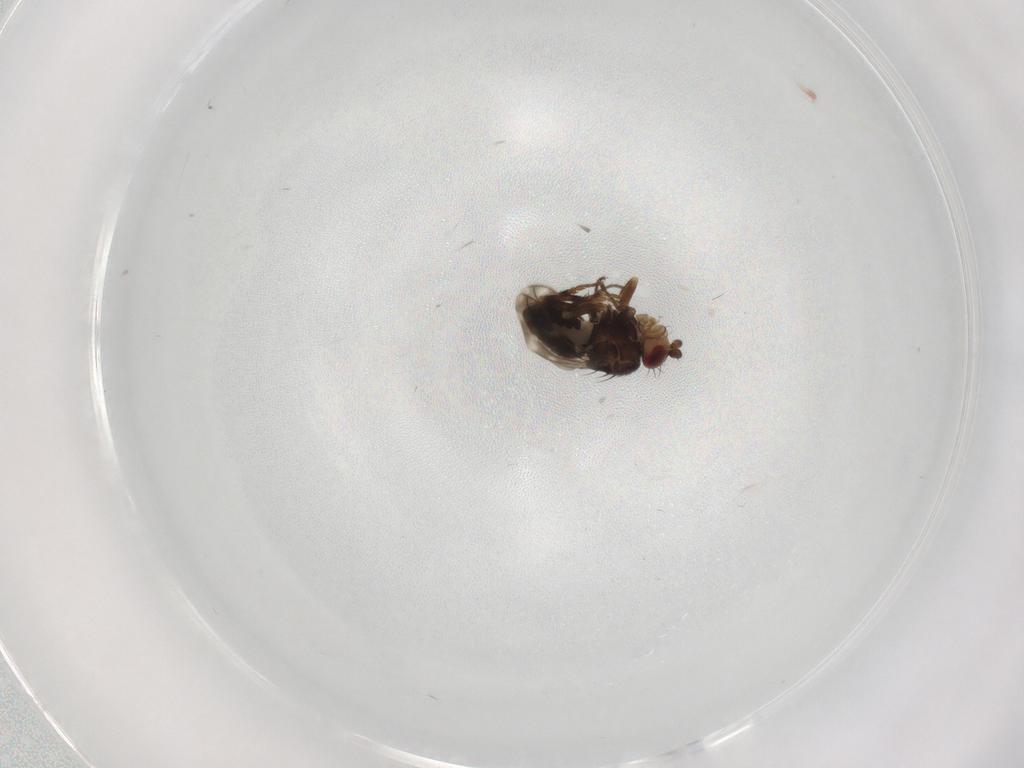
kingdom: Animalia
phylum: Arthropoda
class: Insecta
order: Diptera
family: Sphaeroceridae
